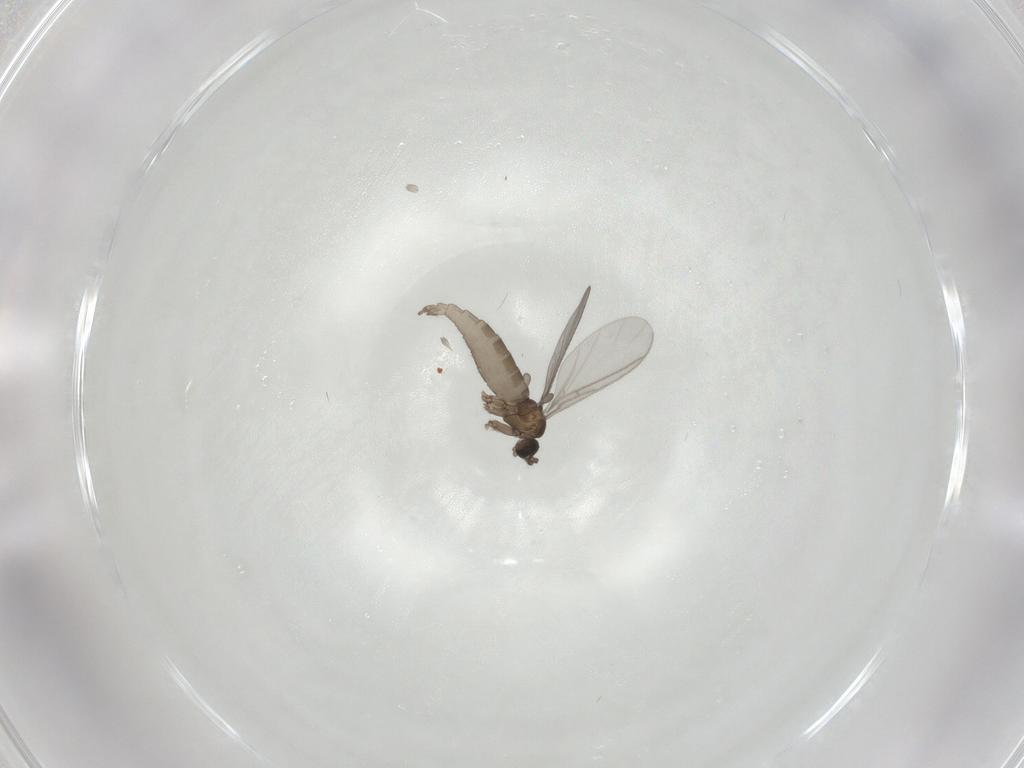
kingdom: Animalia
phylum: Arthropoda
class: Insecta
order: Diptera
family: Sciaridae
